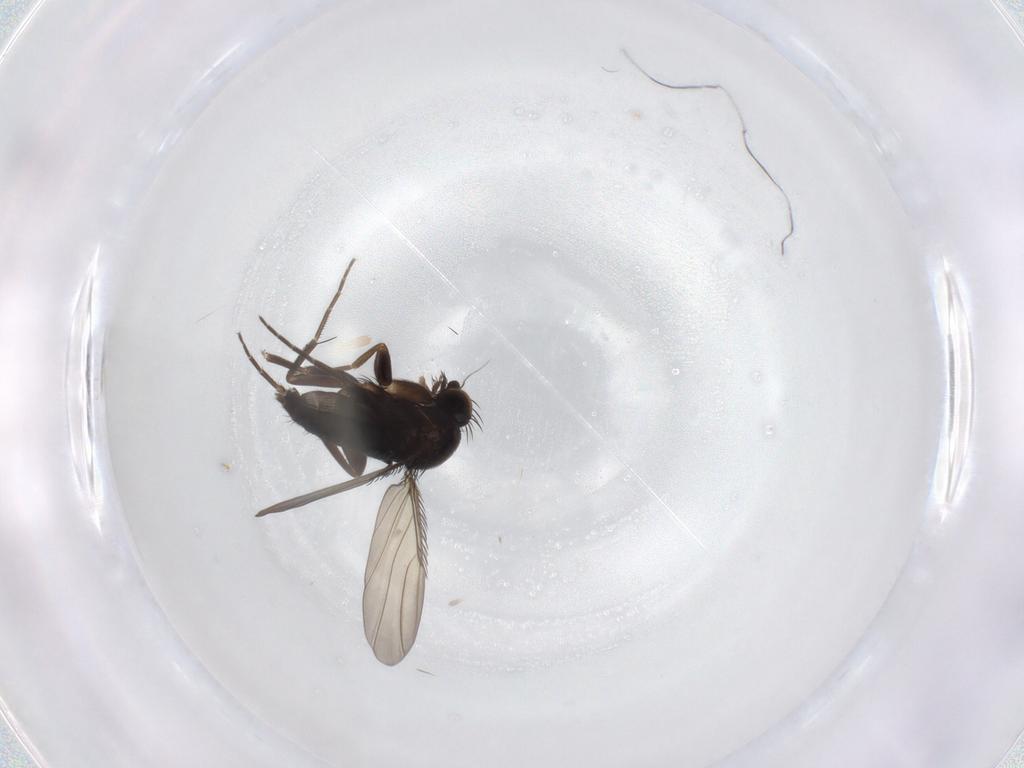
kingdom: Animalia
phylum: Arthropoda
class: Insecta
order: Diptera
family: Phoridae
